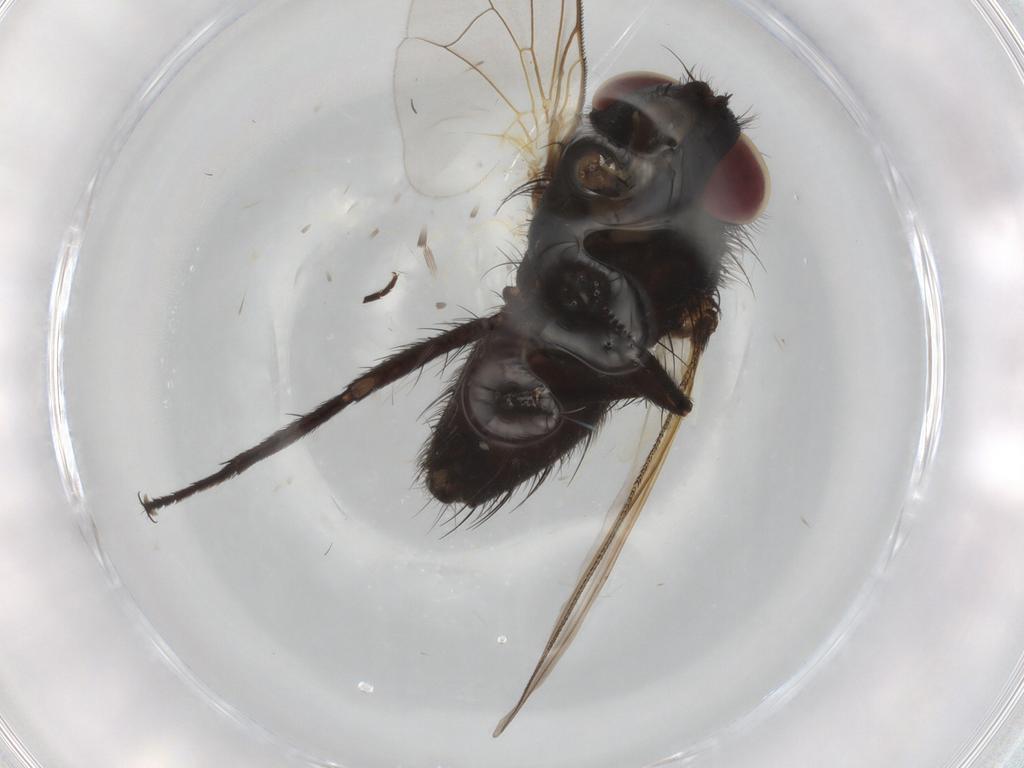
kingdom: Animalia
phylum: Arthropoda
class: Insecta
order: Diptera
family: Tachinidae
